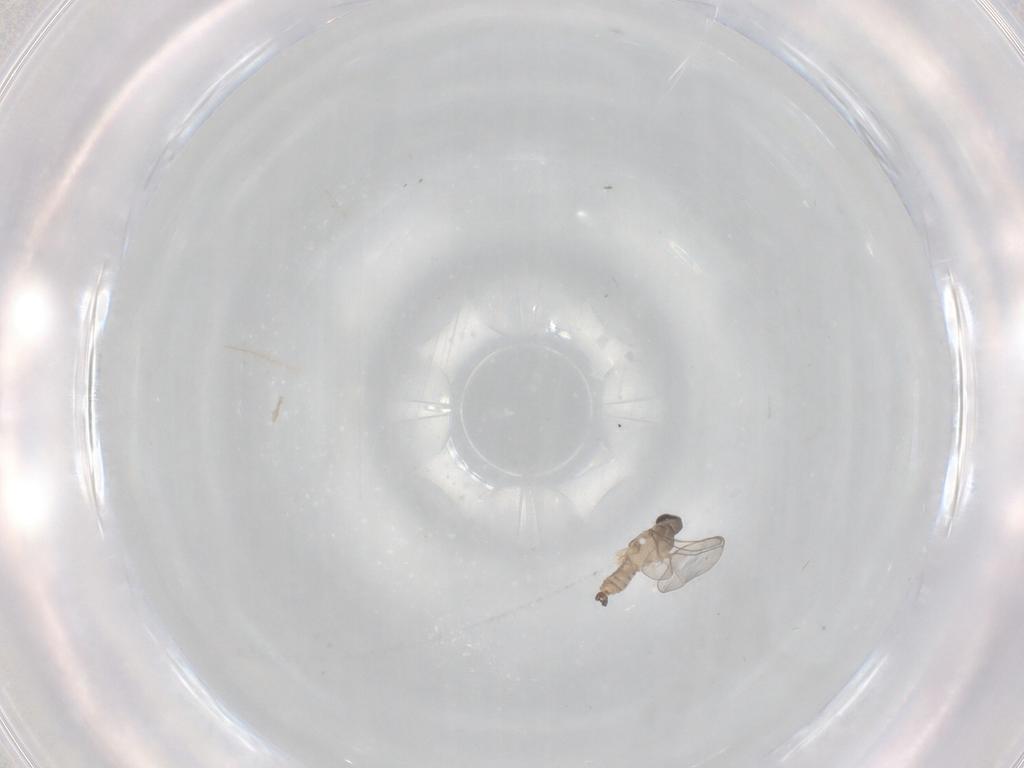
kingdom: Animalia
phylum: Arthropoda
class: Insecta
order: Diptera
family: Cecidomyiidae
